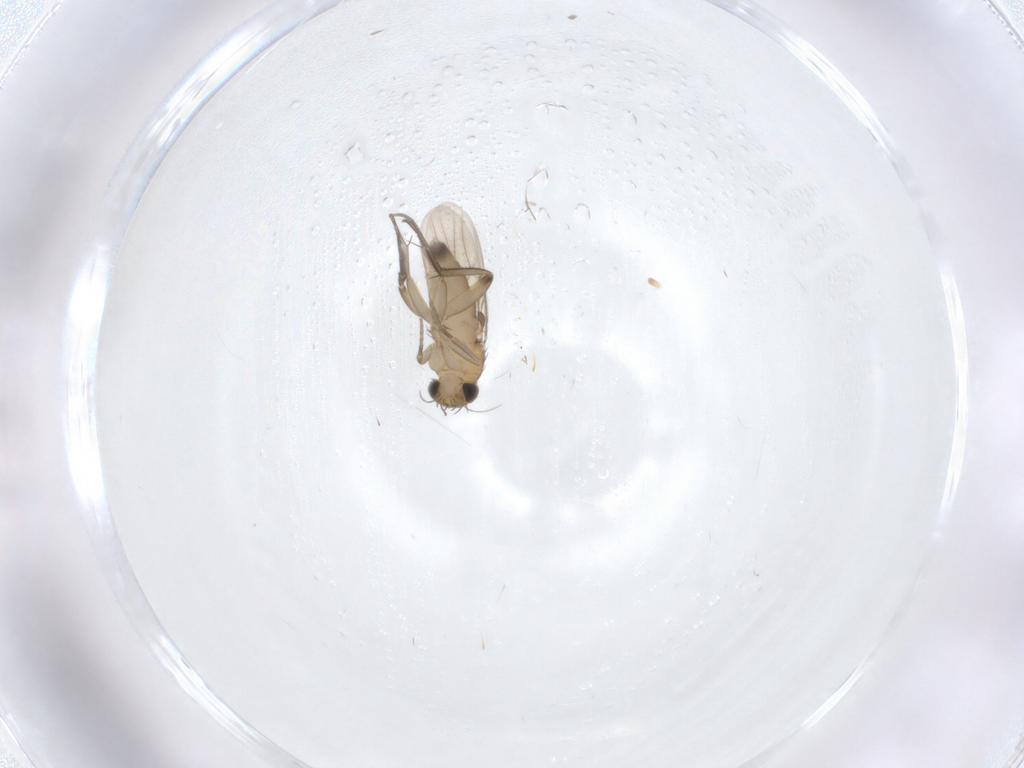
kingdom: Animalia
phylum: Arthropoda
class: Insecta
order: Diptera
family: Phoridae
